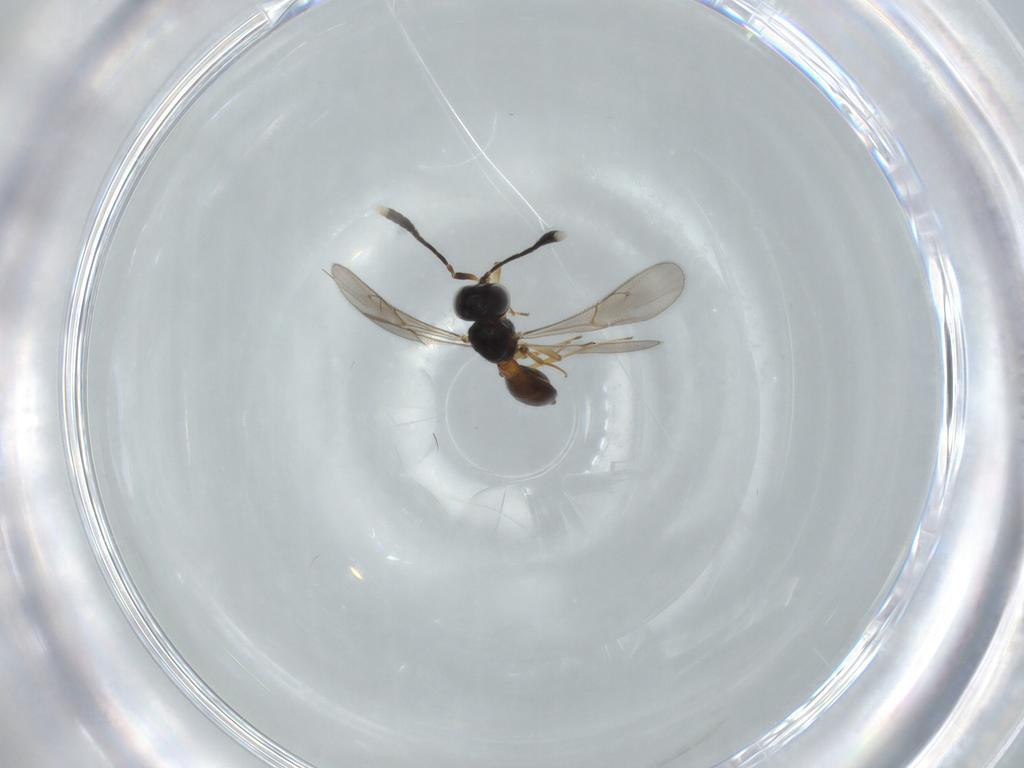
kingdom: Animalia
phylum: Arthropoda
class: Insecta
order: Hymenoptera
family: Scelionidae
